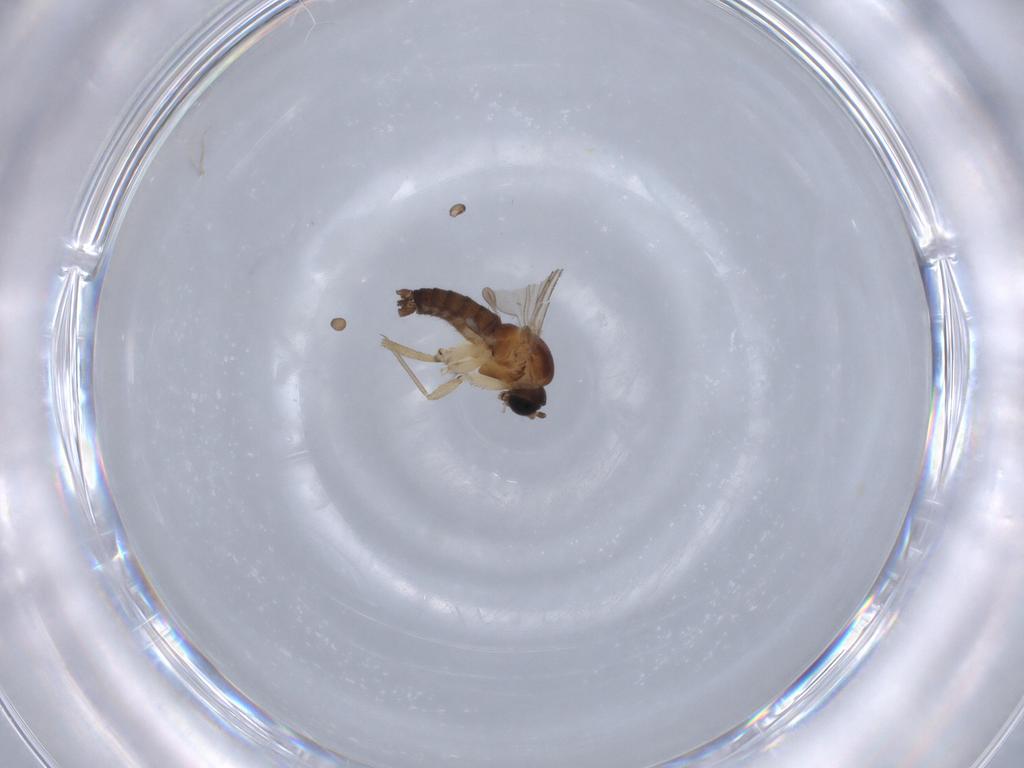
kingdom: Animalia
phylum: Arthropoda
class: Insecta
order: Diptera
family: Sciaridae
